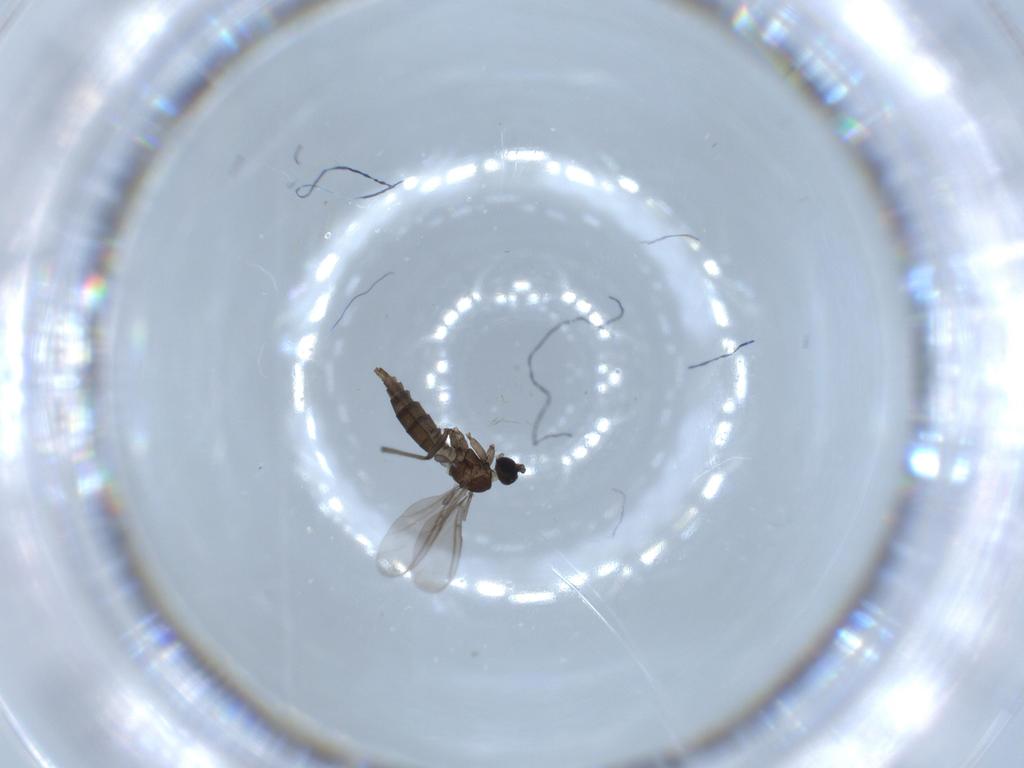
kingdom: Animalia
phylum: Arthropoda
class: Insecta
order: Diptera
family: Sciaridae
